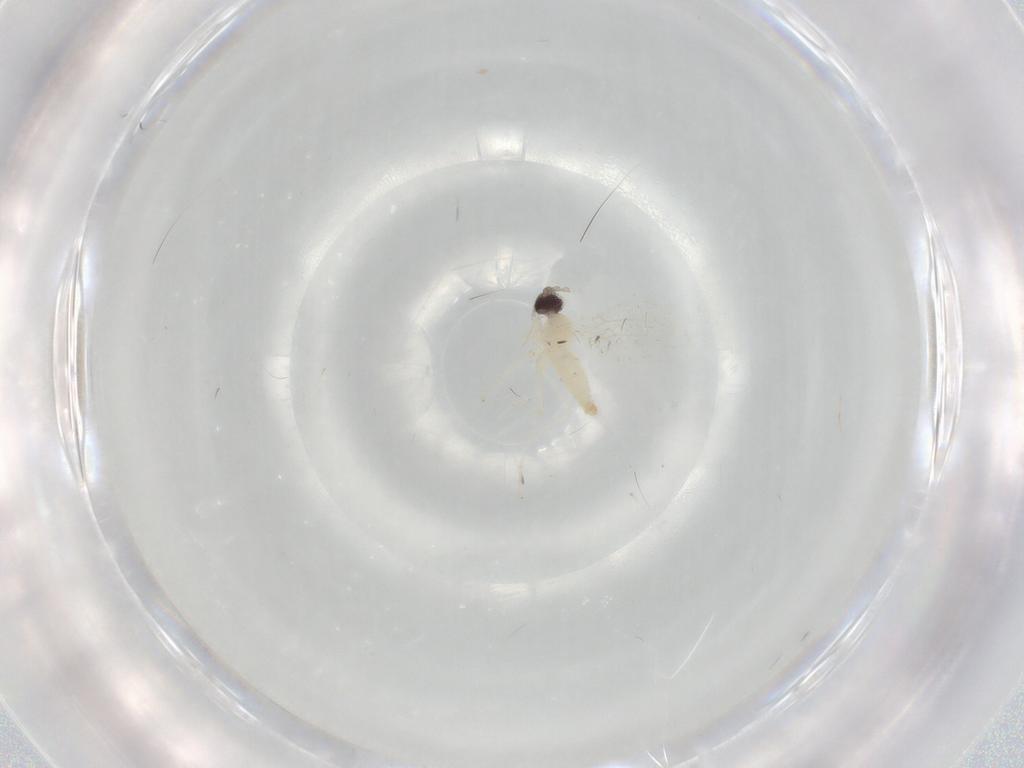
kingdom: Animalia
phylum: Arthropoda
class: Insecta
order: Diptera
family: Cecidomyiidae
